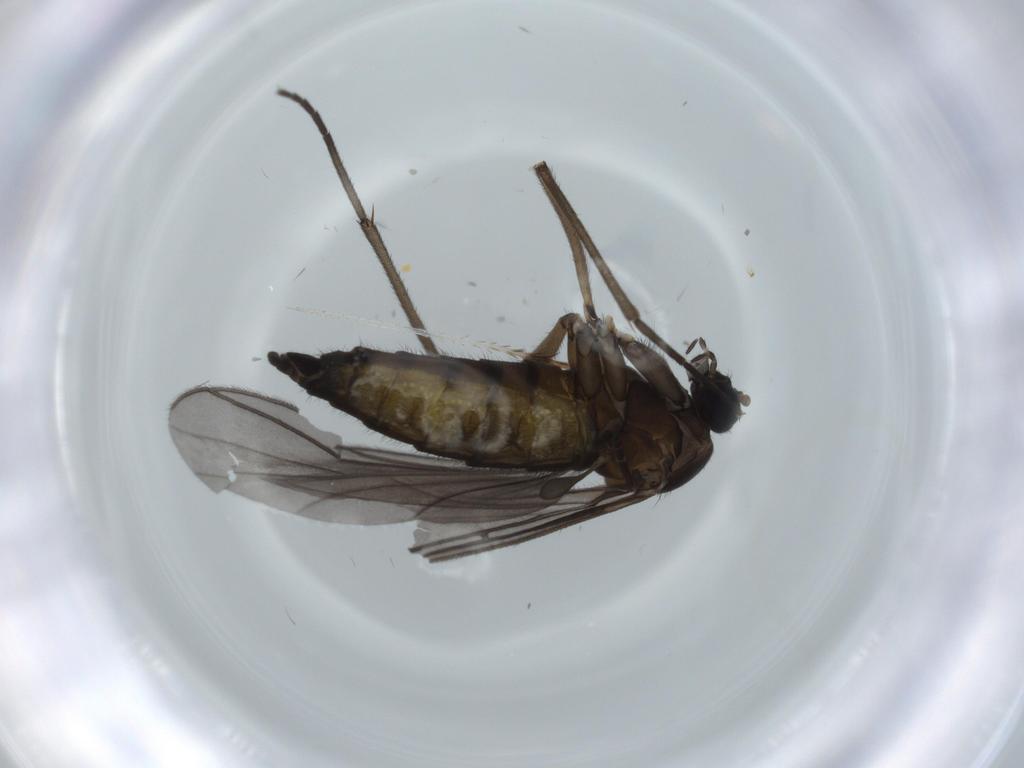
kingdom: Animalia
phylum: Arthropoda
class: Insecta
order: Diptera
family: Sciaridae
